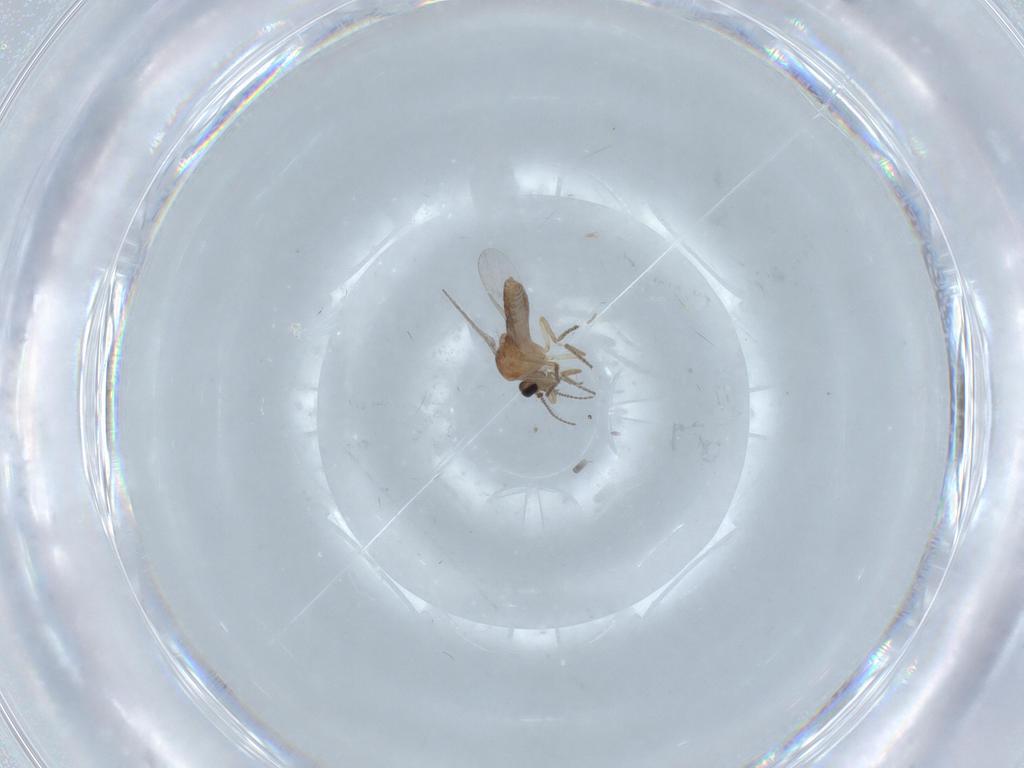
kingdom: Animalia
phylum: Arthropoda
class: Insecta
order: Diptera
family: Ceratopogonidae
